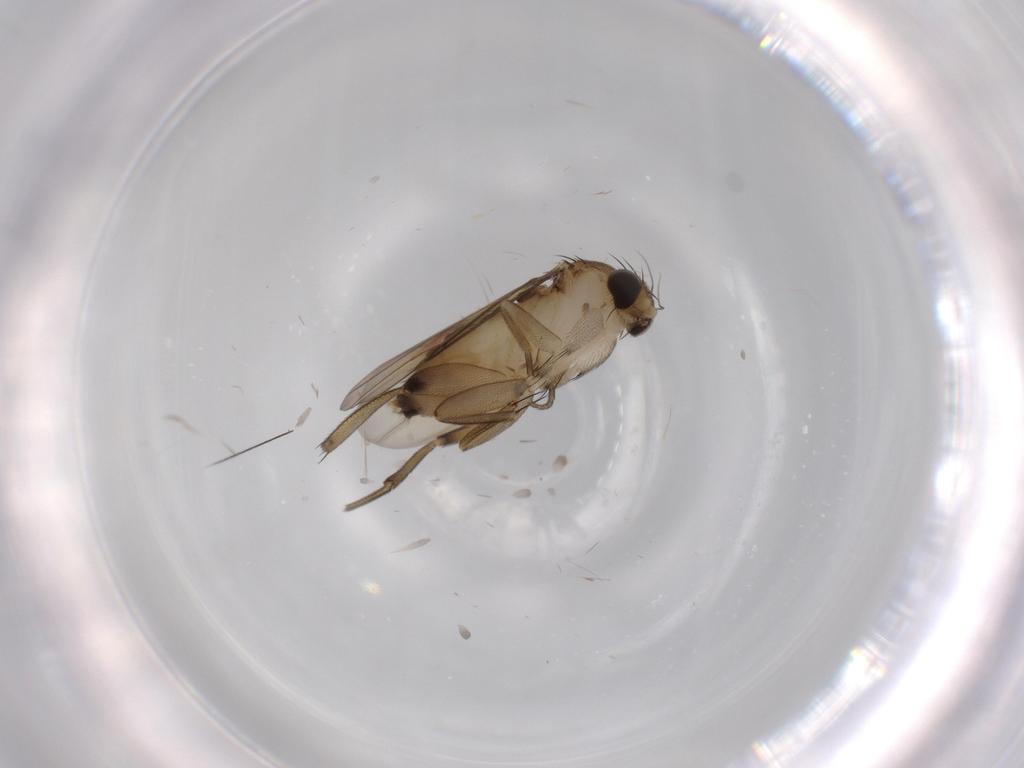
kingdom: Animalia
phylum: Arthropoda
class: Insecta
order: Diptera
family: Phoridae
